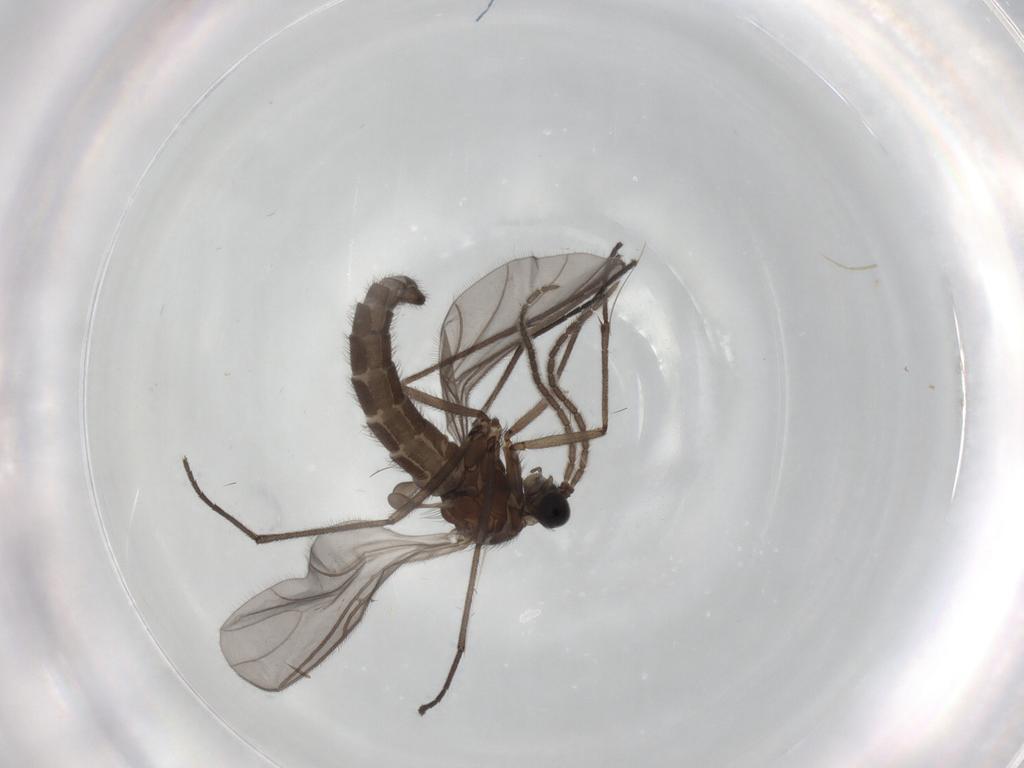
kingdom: Animalia
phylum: Arthropoda
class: Insecta
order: Diptera
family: Sciaridae
